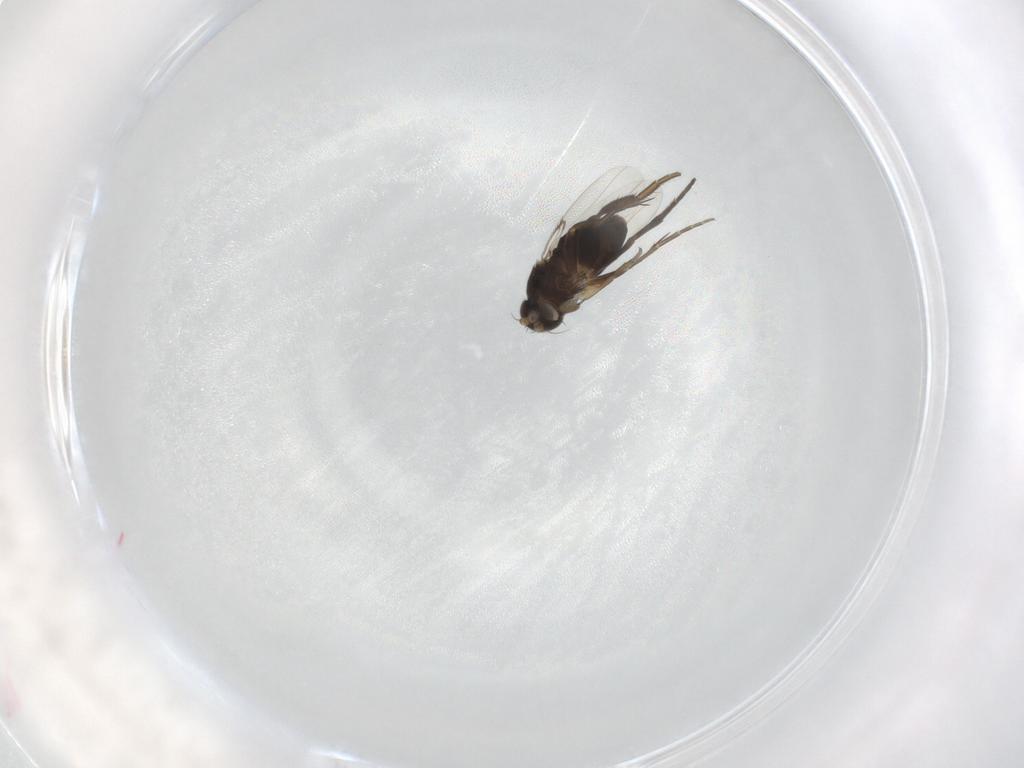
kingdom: Animalia
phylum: Arthropoda
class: Insecta
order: Diptera
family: Phoridae
